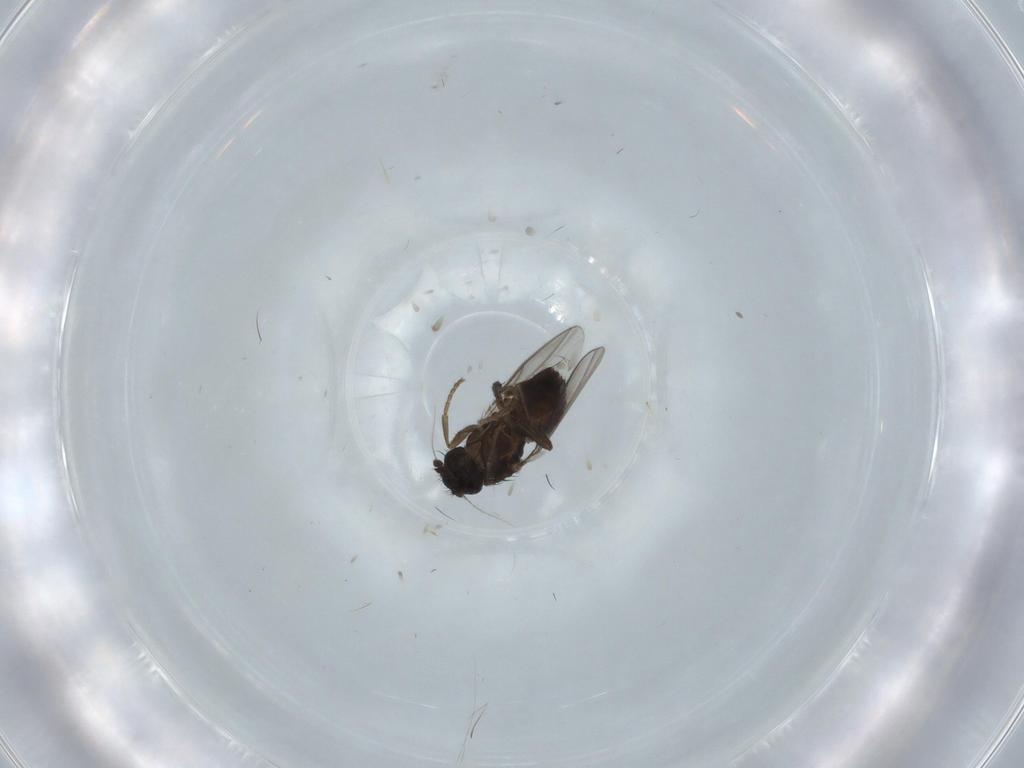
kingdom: Animalia
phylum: Arthropoda
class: Insecta
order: Diptera
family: Sphaeroceridae
